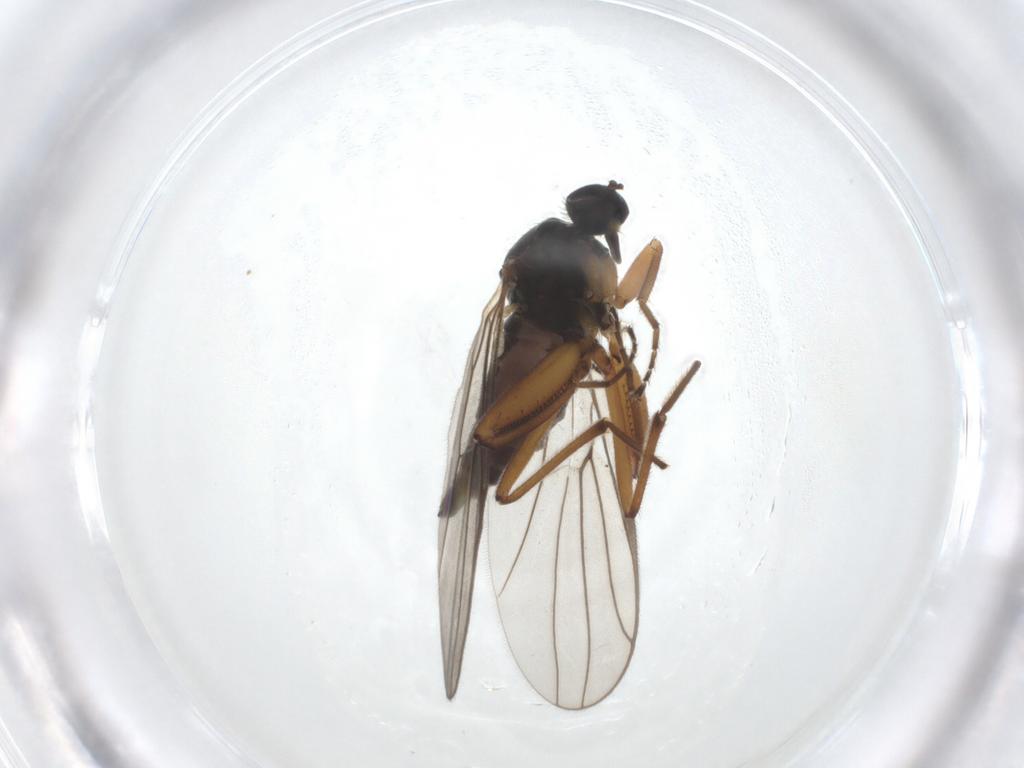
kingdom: Animalia
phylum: Arthropoda
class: Insecta
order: Diptera
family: Hybotidae
